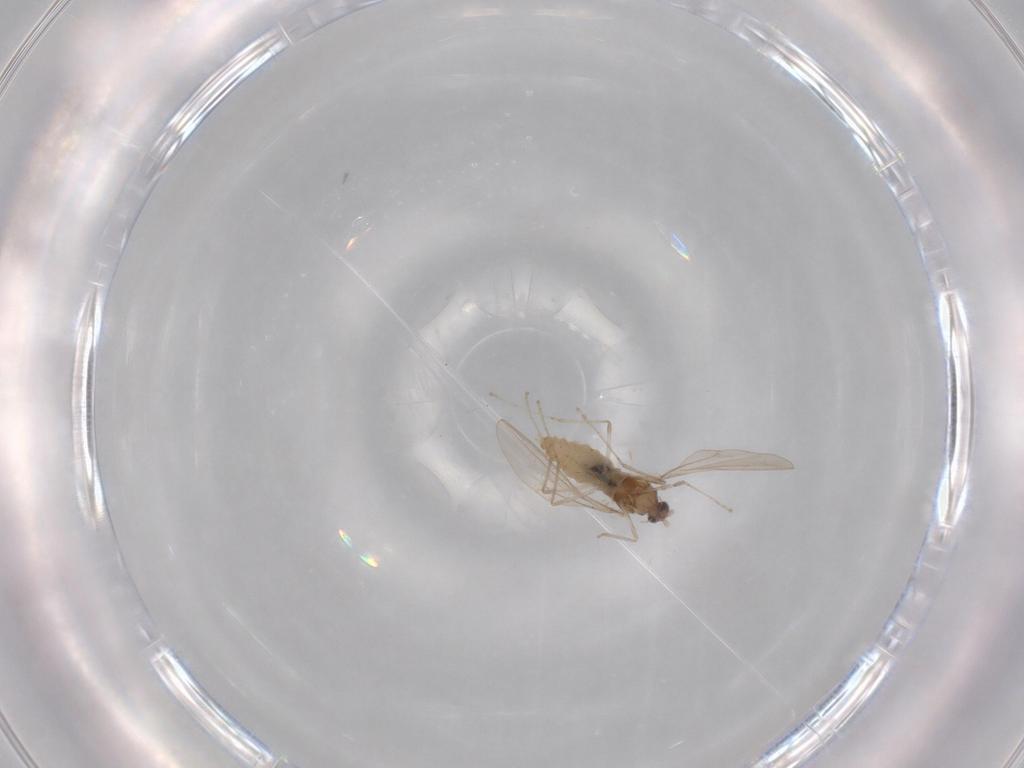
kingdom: Animalia
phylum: Arthropoda
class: Insecta
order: Diptera
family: Cecidomyiidae
